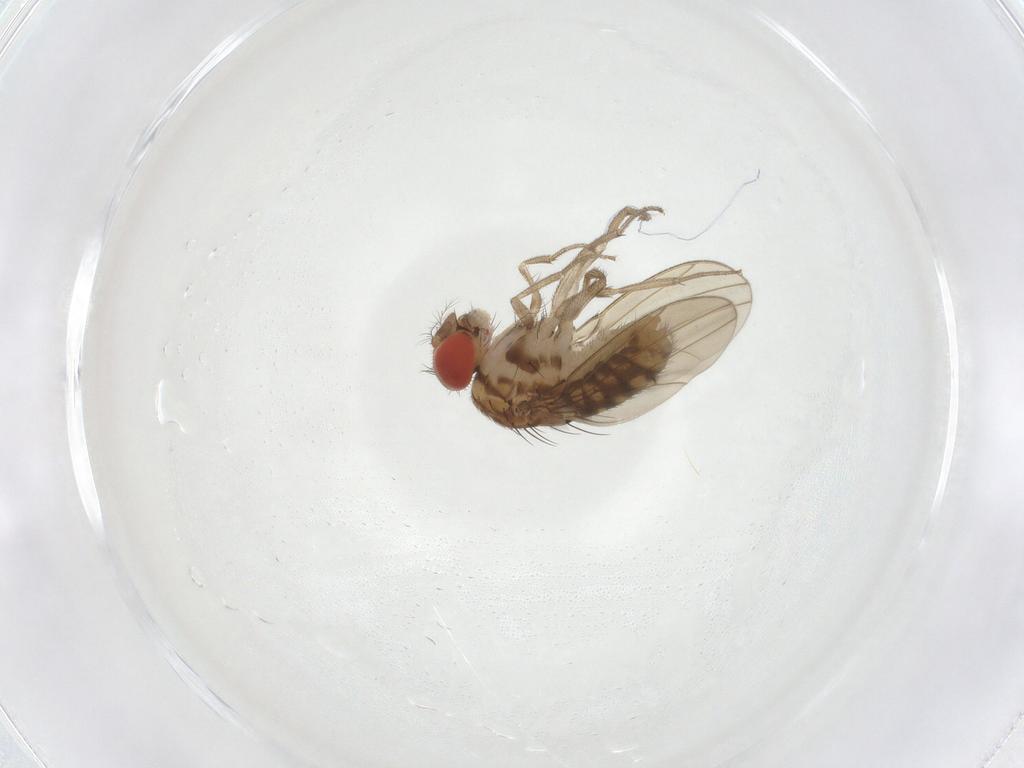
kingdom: Animalia
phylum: Arthropoda
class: Insecta
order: Diptera
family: Drosophilidae
